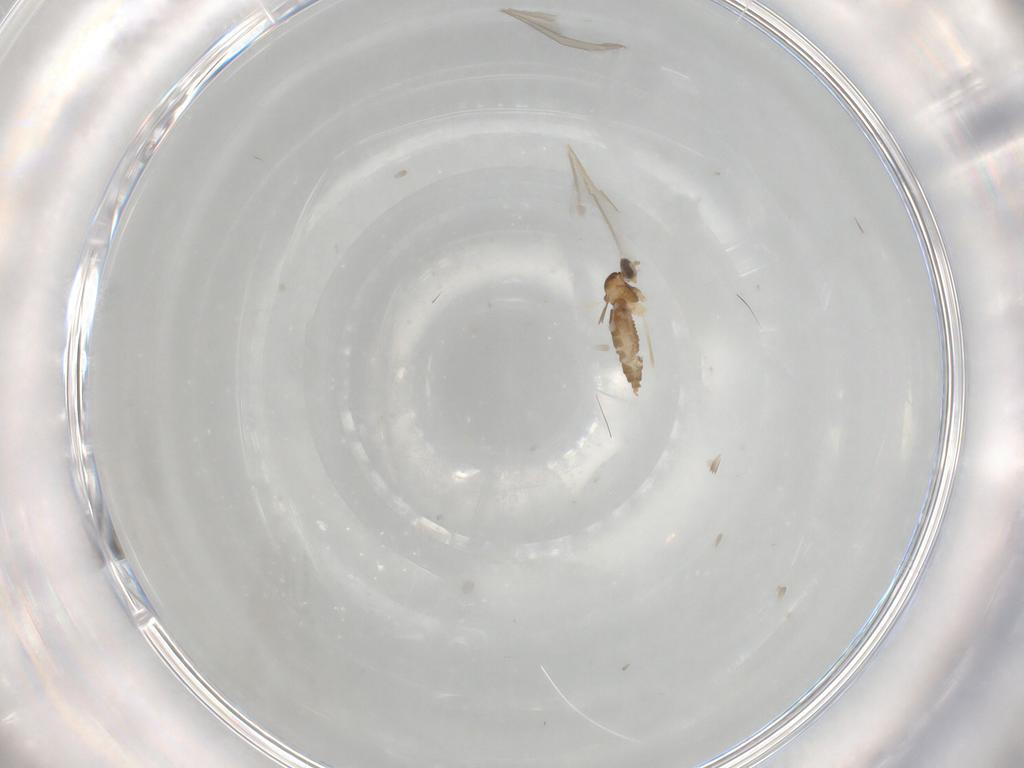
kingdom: Animalia
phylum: Arthropoda
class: Insecta
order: Diptera
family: Cecidomyiidae
